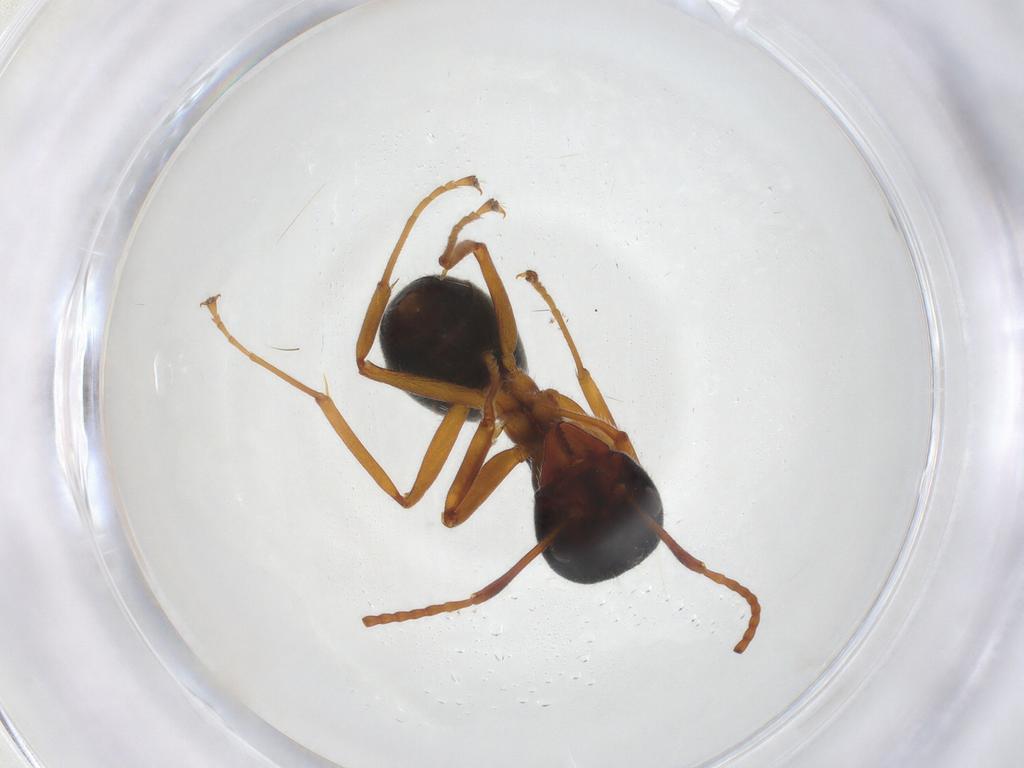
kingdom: Animalia
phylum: Arthropoda
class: Insecta
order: Hymenoptera
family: Formicidae
